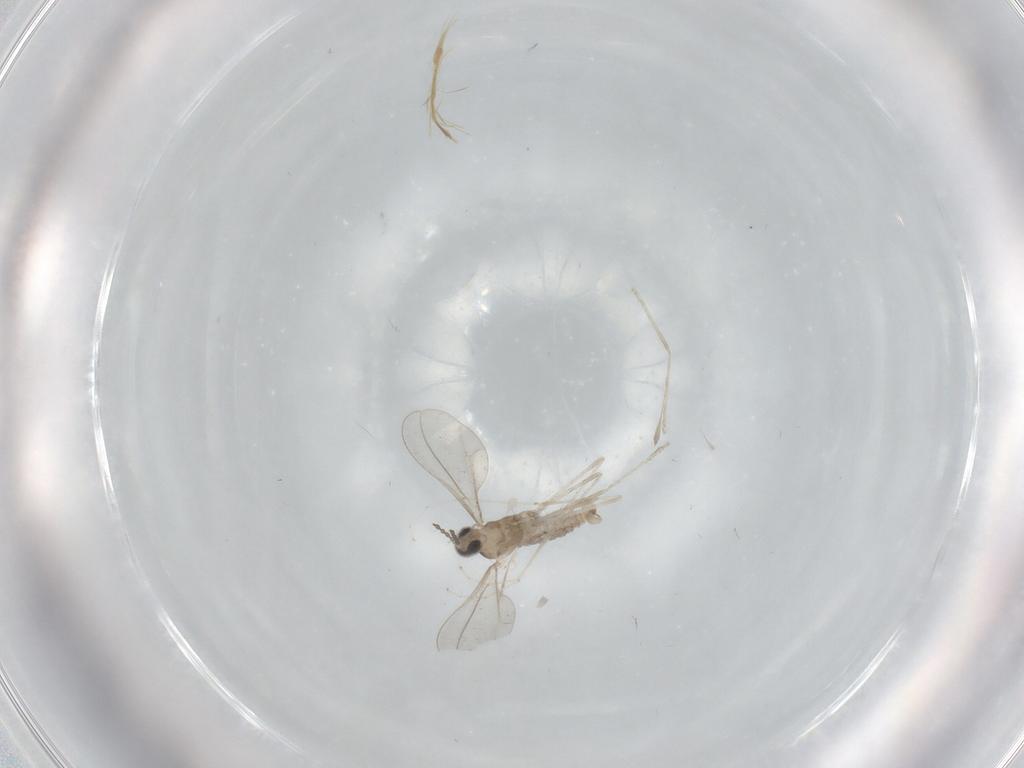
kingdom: Animalia
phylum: Arthropoda
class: Insecta
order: Diptera
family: Cecidomyiidae
